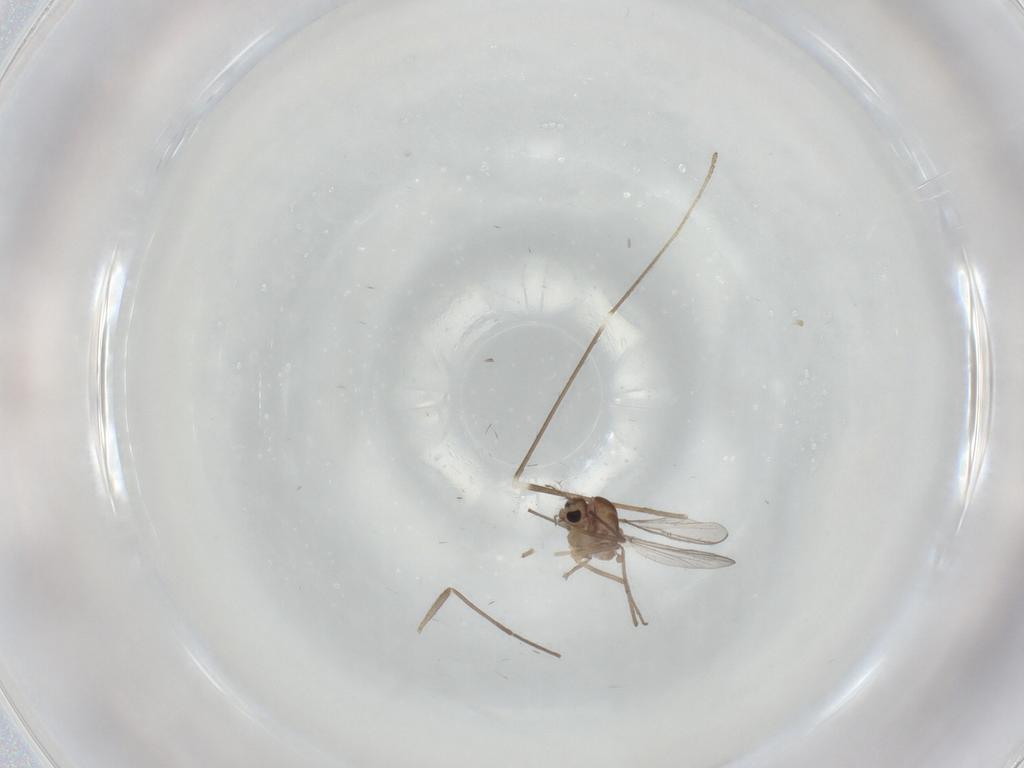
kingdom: Animalia
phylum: Arthropoda
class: Insecta
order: Diptera
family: Chironomidae
